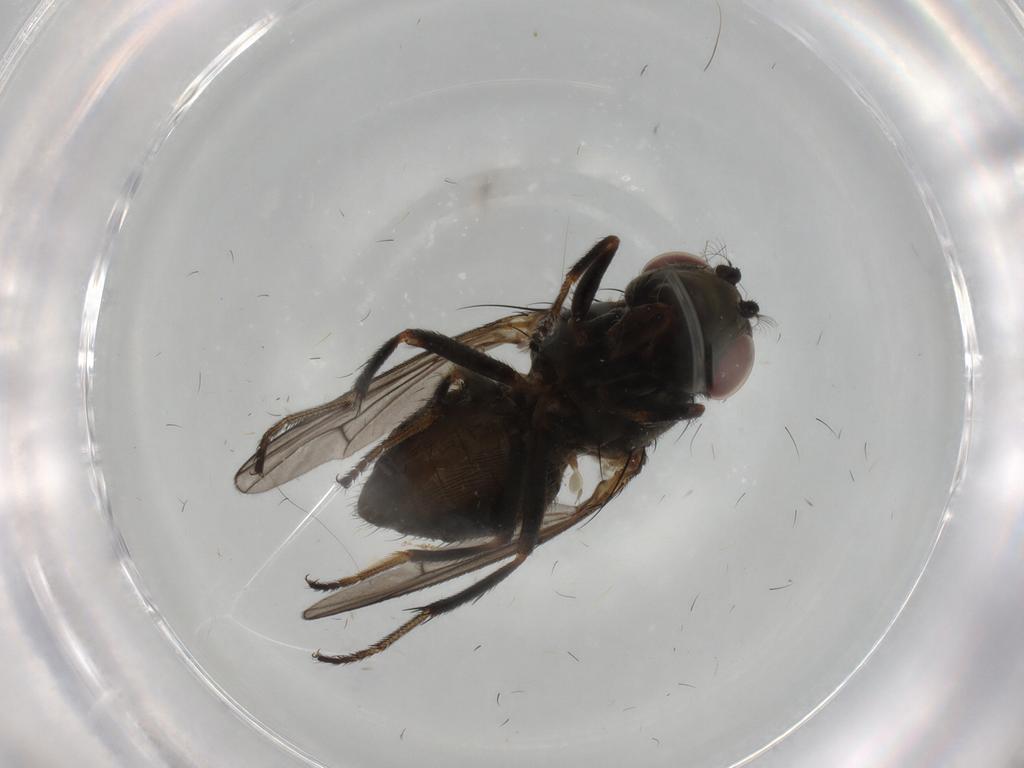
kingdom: Animalia
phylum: Arthropoda
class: Insecta
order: Diptera
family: Ephydridae
